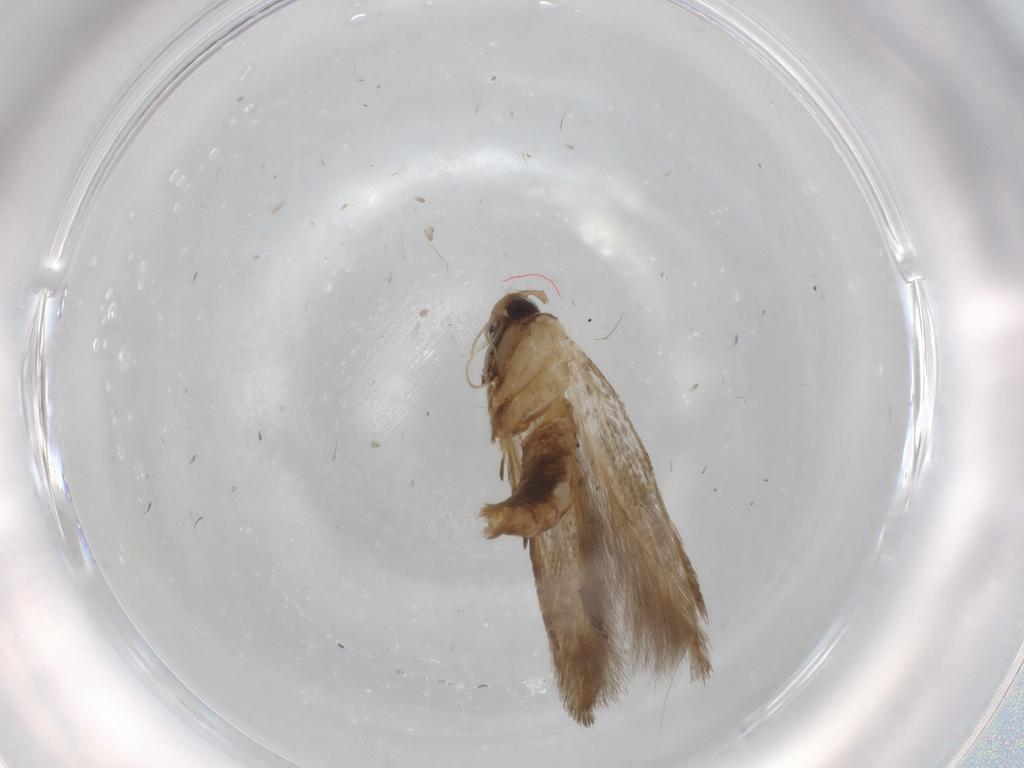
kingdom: Animalia
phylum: Arthropoda
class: Insecta
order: Lepidoptera
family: Cosmopterigidae
